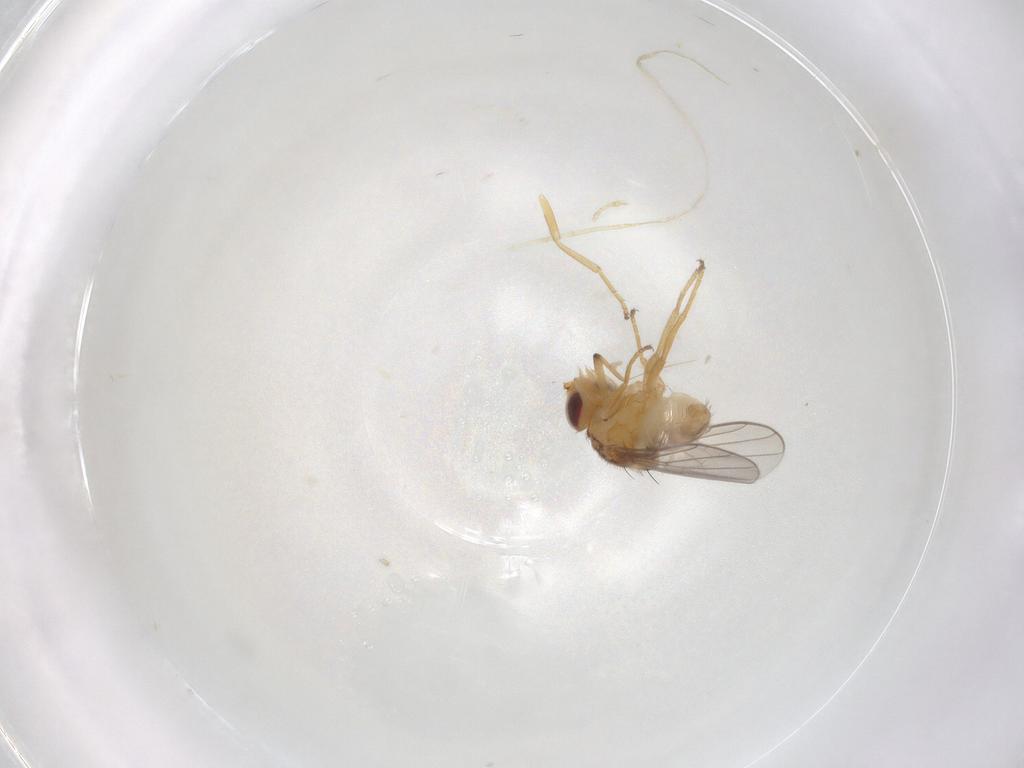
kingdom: Animalia
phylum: Arthropoda
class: Insecta
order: Diptera
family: Chloropidae
